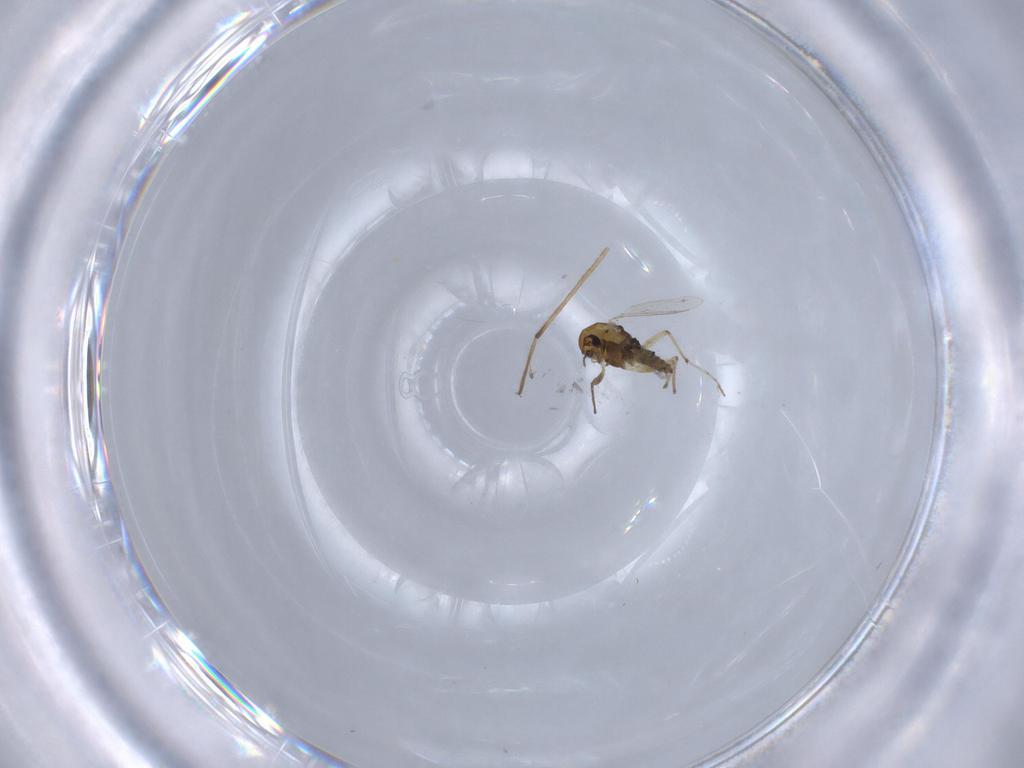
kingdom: Animalia
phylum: Arthropoda
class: Insecta
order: Diptera
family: Chironomidae
